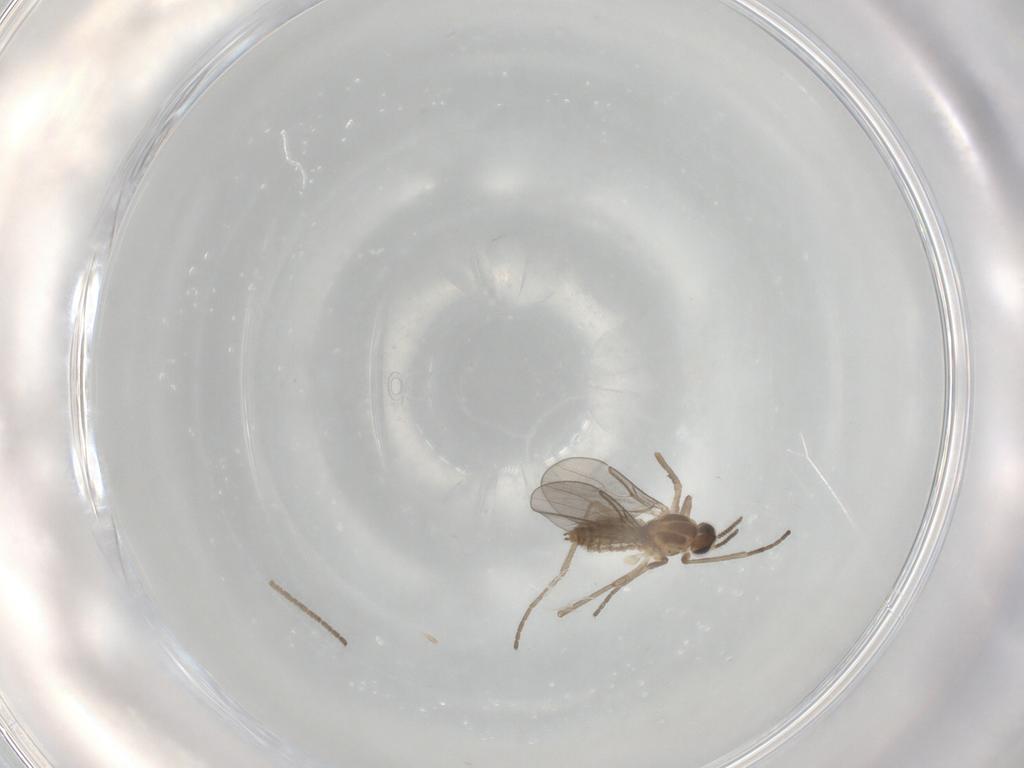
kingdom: Animalia
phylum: Arthropoda
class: Insecta
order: Diptera
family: Cecidomyiidae
